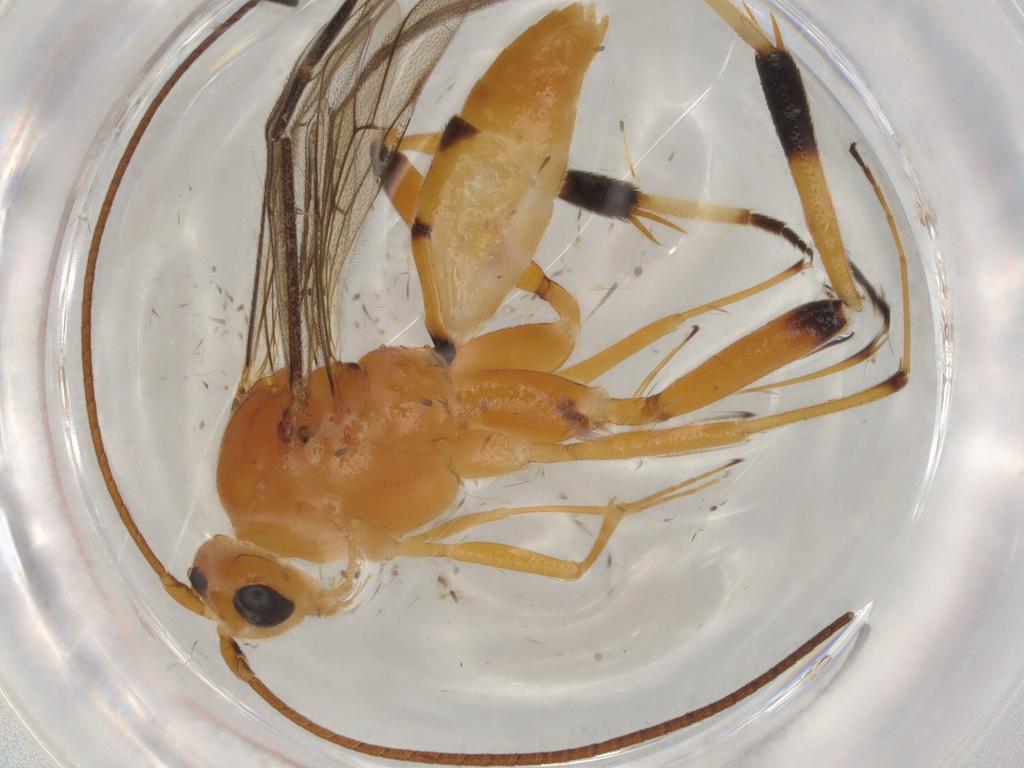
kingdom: Animalia
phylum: Arthropoda
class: Insecta
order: Hymenoptera
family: Braconidae
